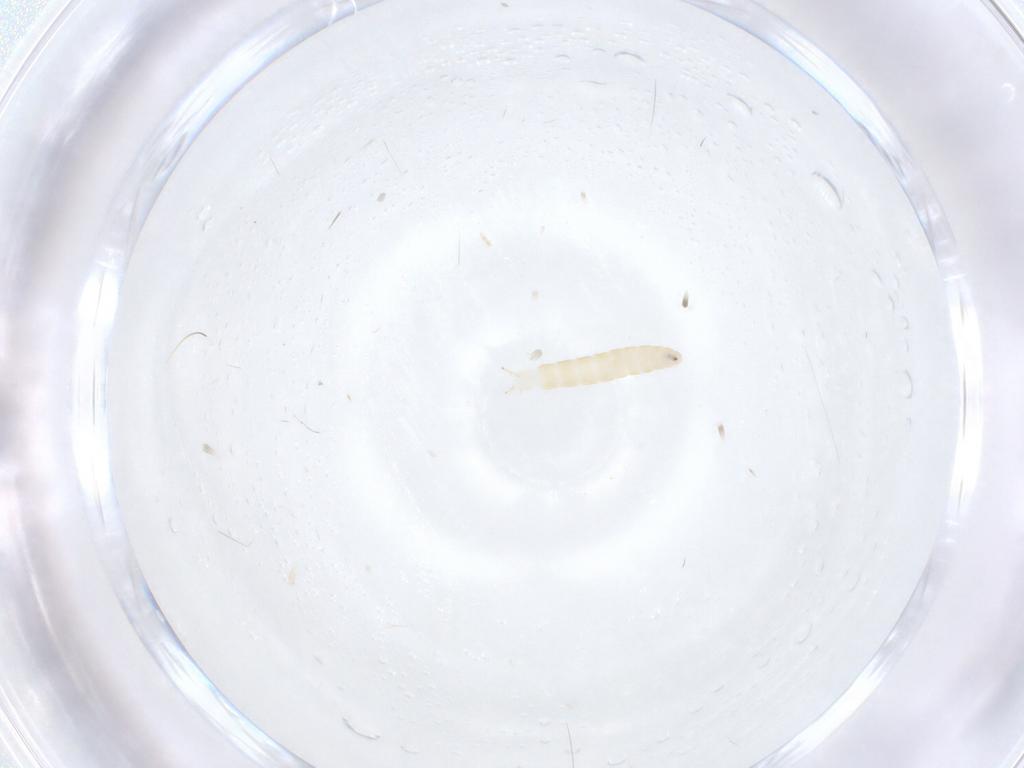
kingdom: Animalia
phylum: Arthropoda
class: Insecta
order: Diptera
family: Tachinidae
